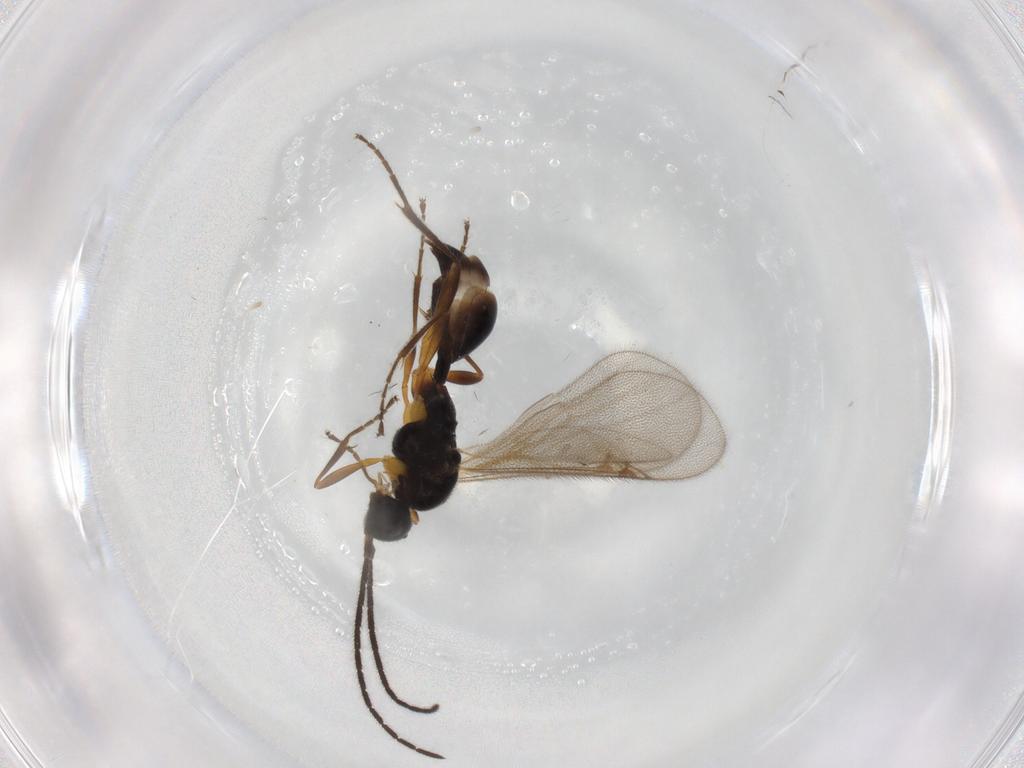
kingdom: Animalia
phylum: Arthropoda
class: Insecta
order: Hymenoptera
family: Proctotrupidae
